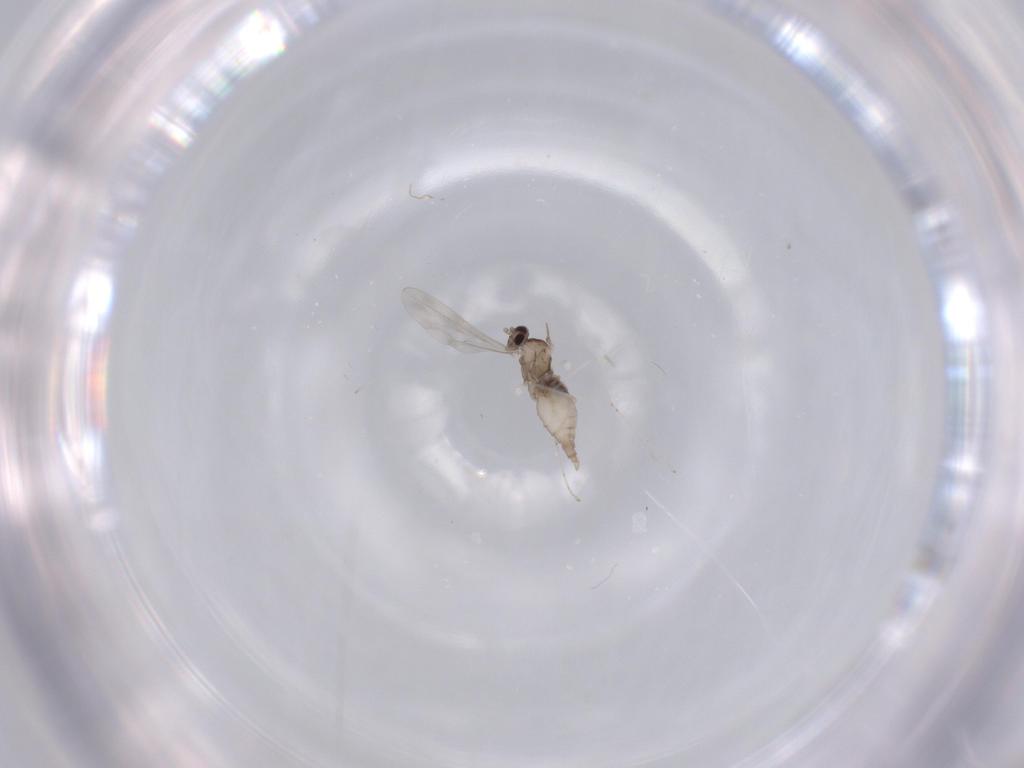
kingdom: Animalia
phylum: Arthropoda
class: Insecta
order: Diptera
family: Cecidomyiidae
